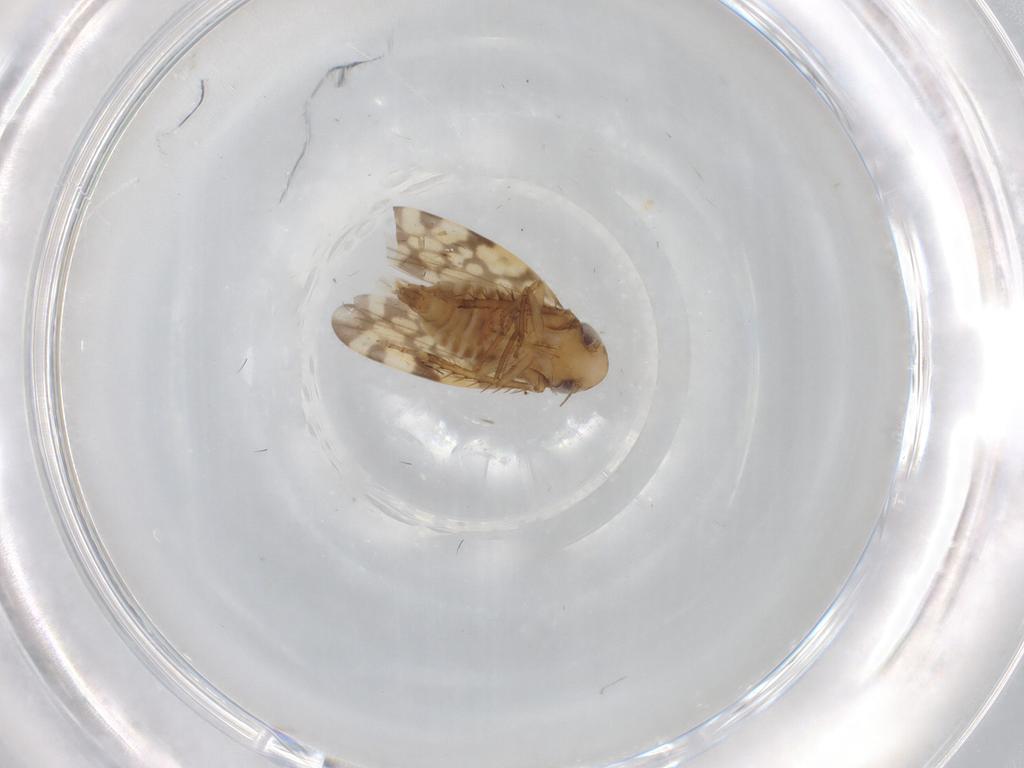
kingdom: Animalia
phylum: Arthropoda
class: Insecta
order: Hemiptera
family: Cicadellidae
